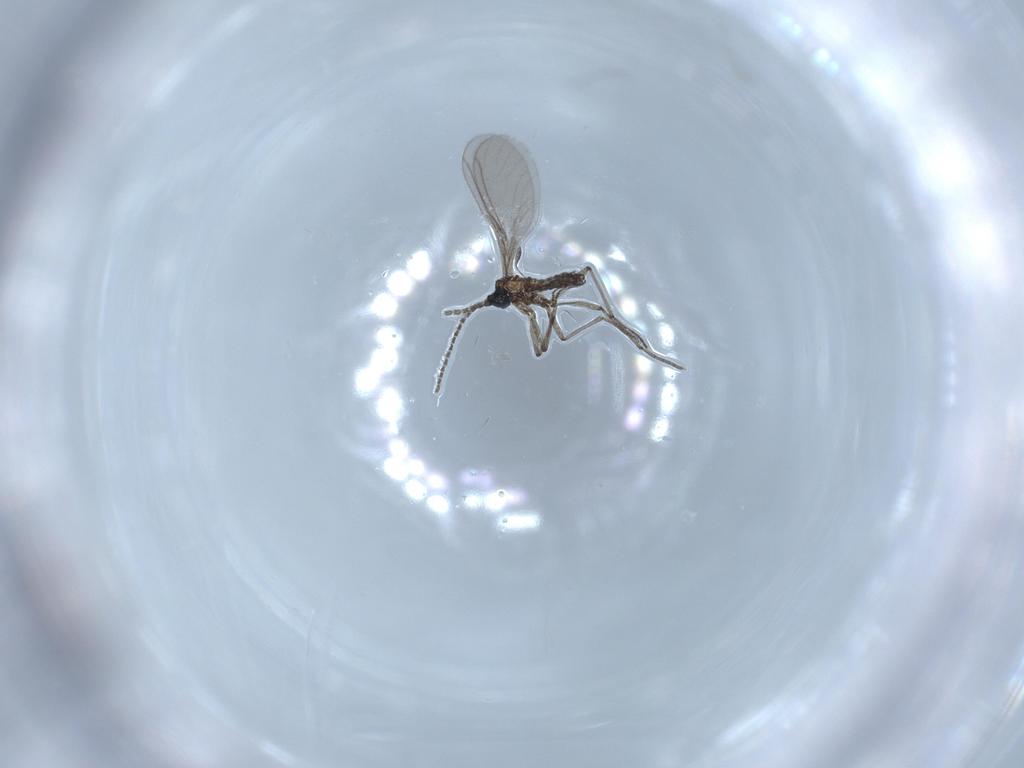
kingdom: Animalia
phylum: Arthropoda
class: Insecta
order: Diptera
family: Sciaridae
